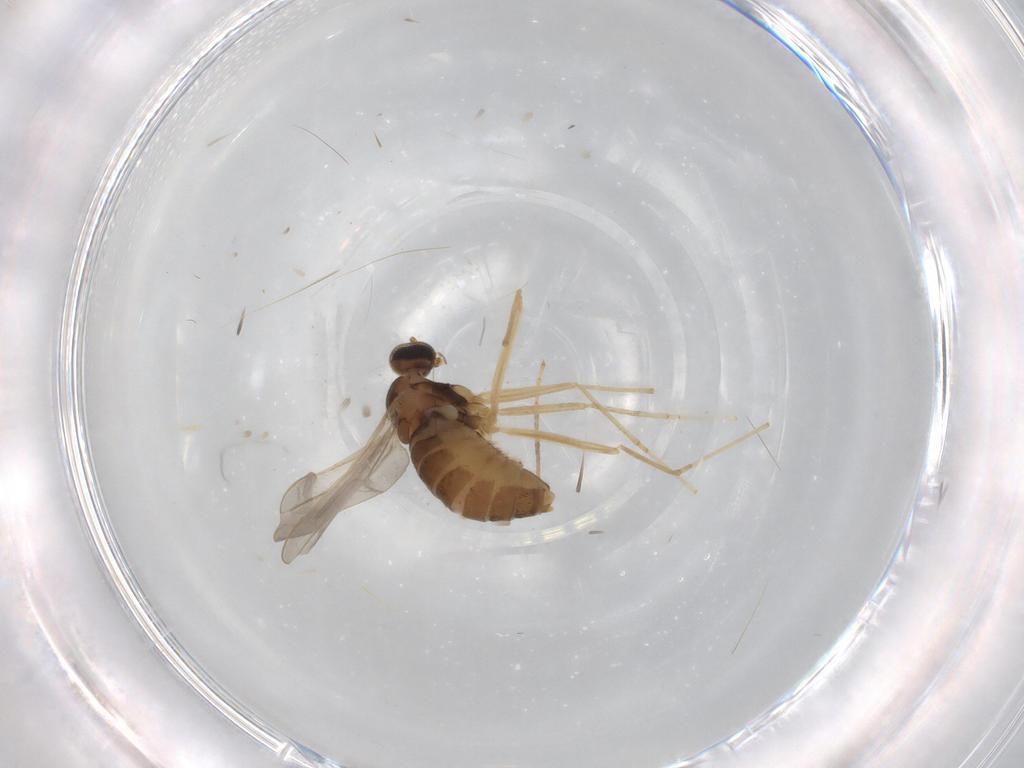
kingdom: Animalia
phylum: Arthropoda
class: Insecta
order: Diptera
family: Cecidomyiidae
